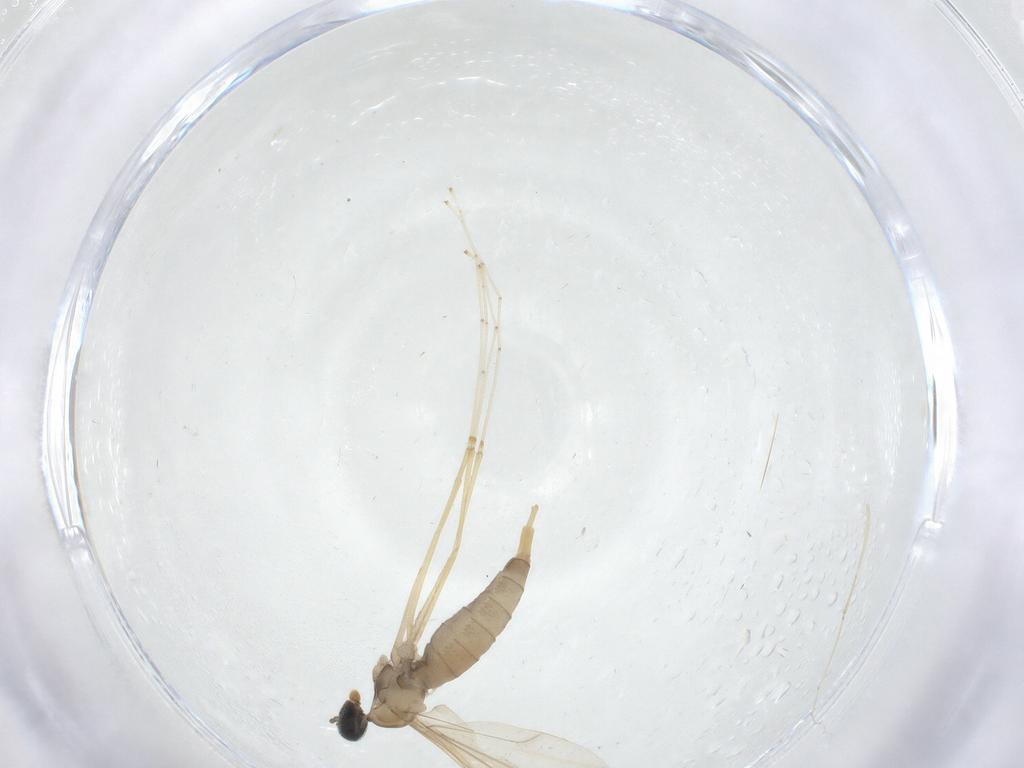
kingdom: Animalia
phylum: Arthropoda
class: Insecta
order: Diptera
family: Cecidomyiidae
